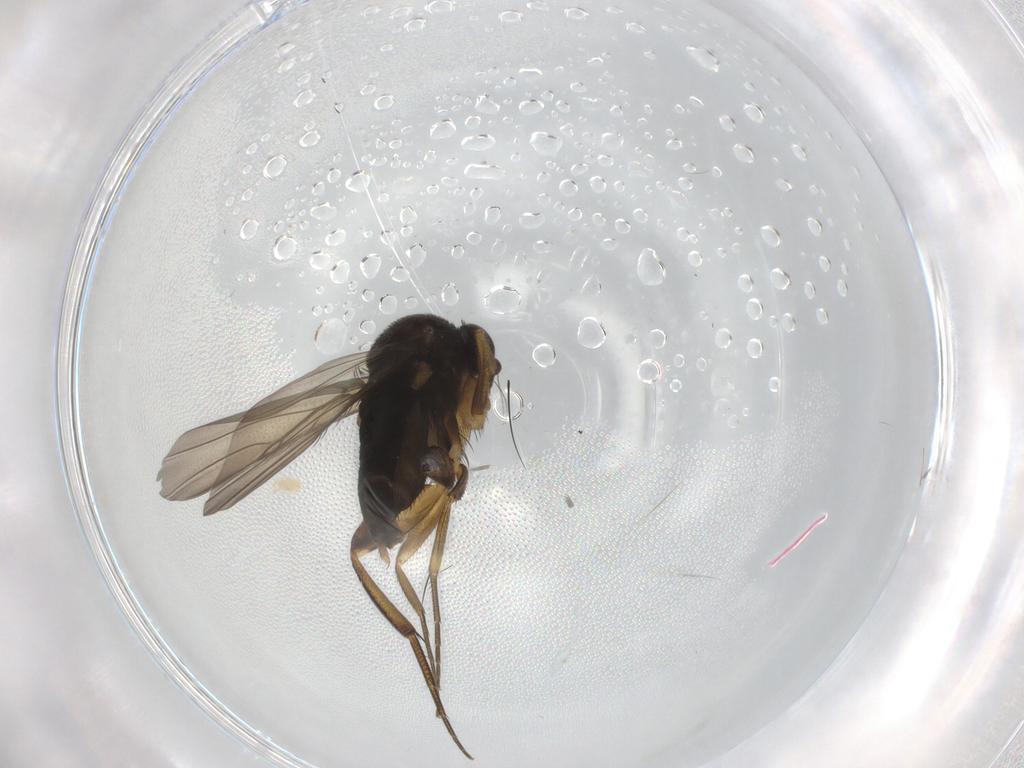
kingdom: Animalia
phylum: Arthropoda
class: Insecta
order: Diptera
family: Phoridae
